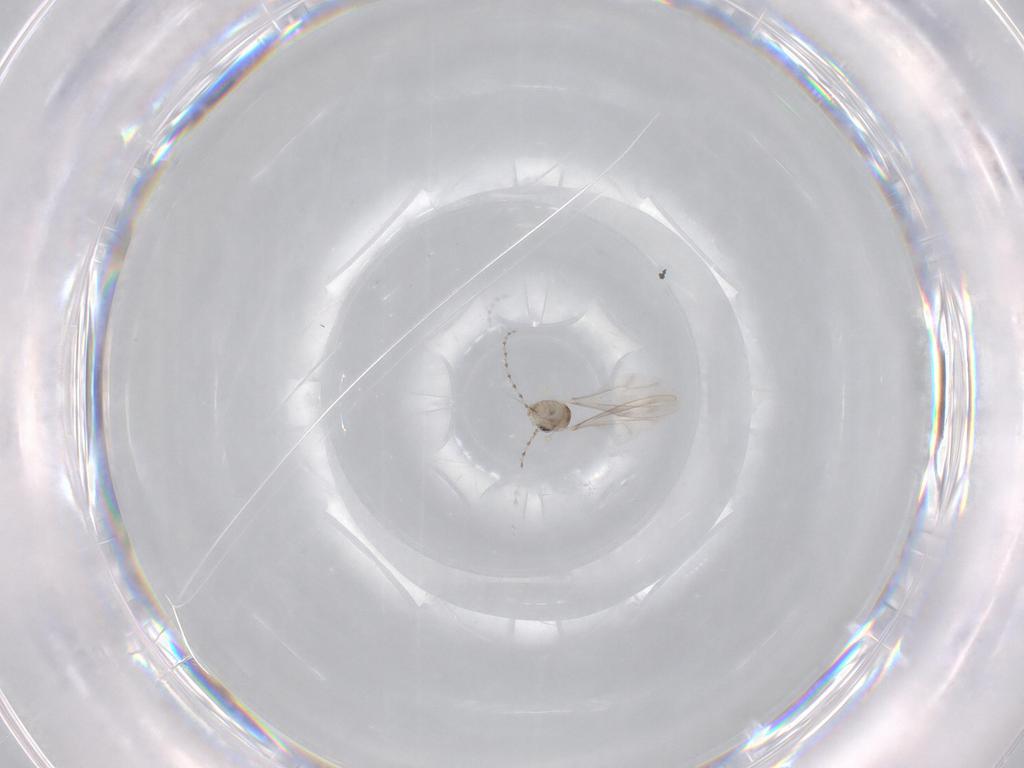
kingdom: Animalia
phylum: Arthropoda
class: Insecta
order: Diptera
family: Cecidomyiidae
